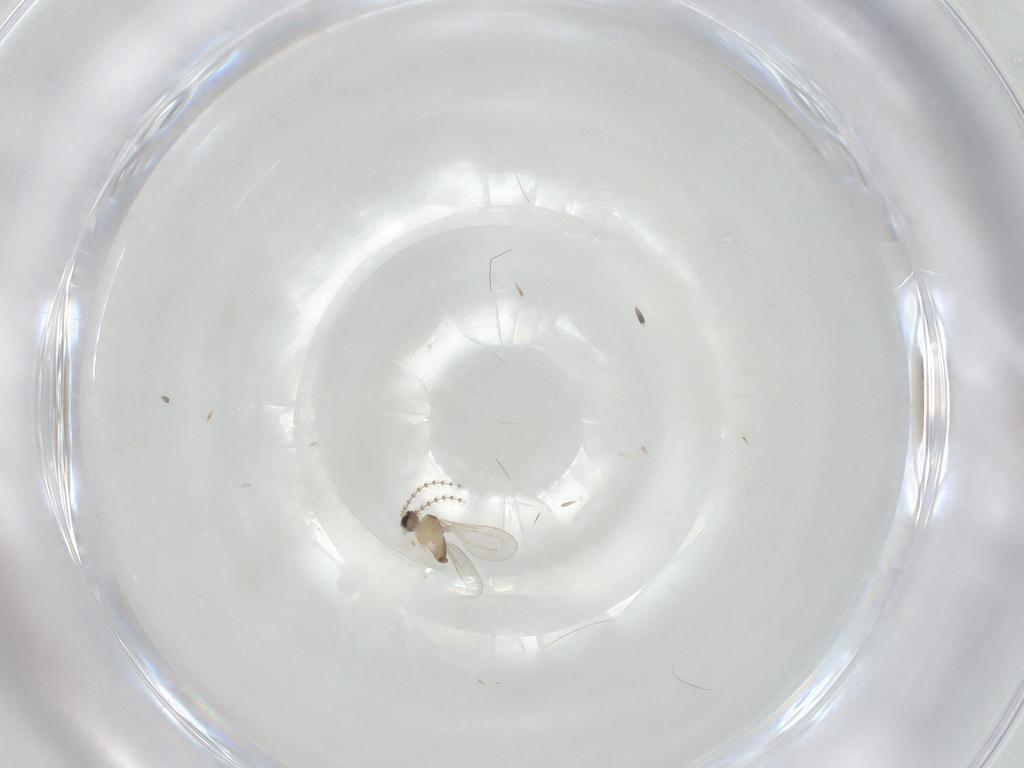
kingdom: Animalia
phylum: Arthropoda
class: Insecta
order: Diptera
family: Cecidomyiidae
